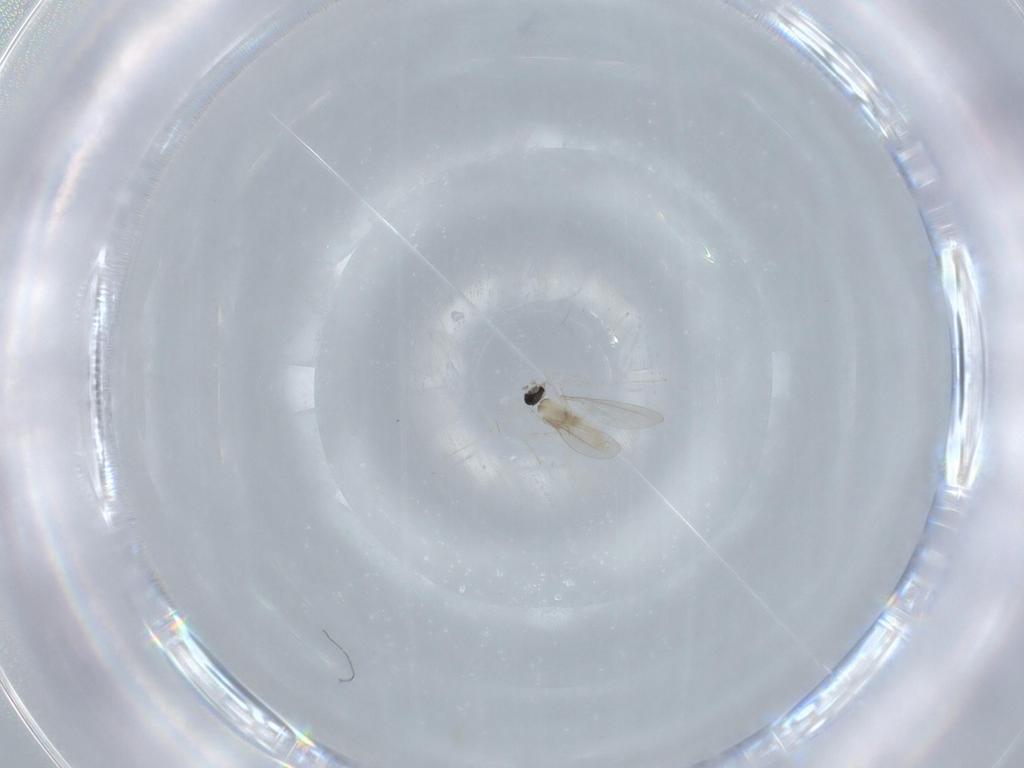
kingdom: Animalia
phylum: Arthropoda
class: Insecta
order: Diptera
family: Cecidomyiidae
